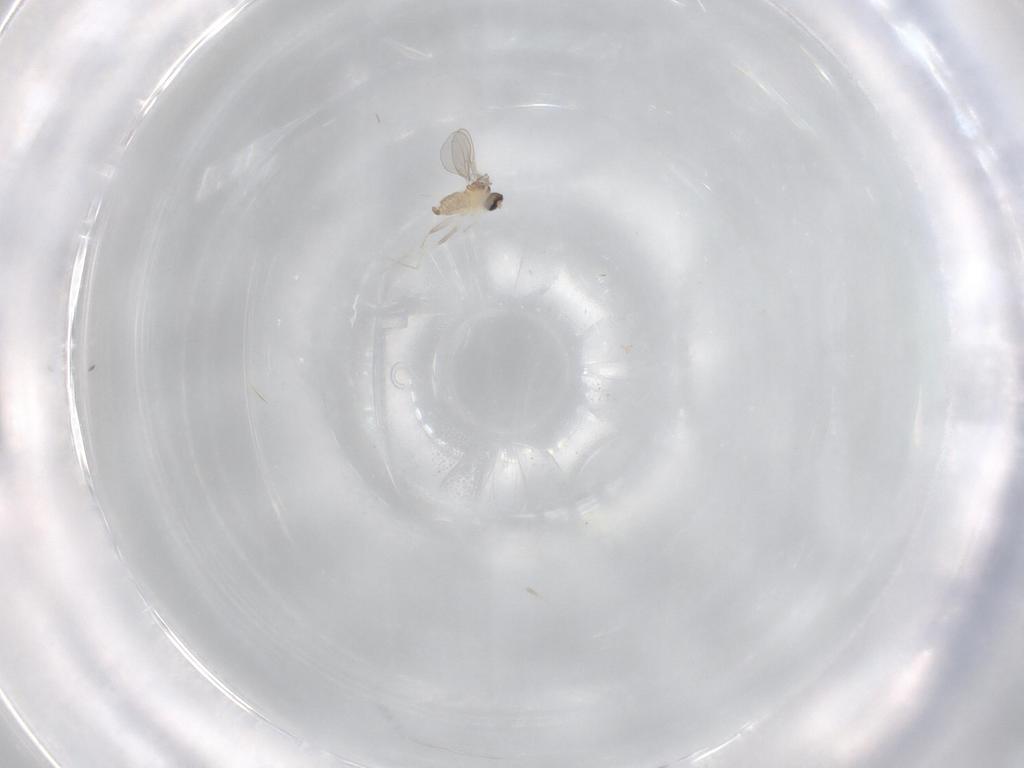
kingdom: Animalia
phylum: Arthropoda
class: Insecta
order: Diptera
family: Cecidomyiidae
